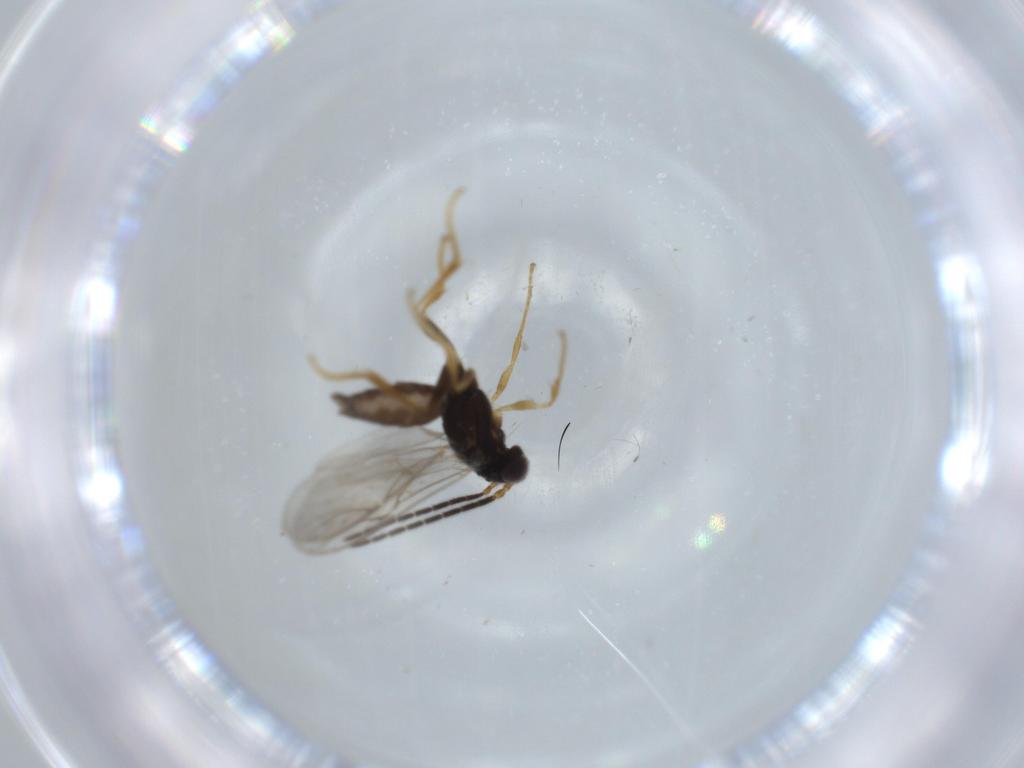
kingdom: Animalia
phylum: Arthropoda
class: Insecta
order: Hymenoptera
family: Dryinidae
